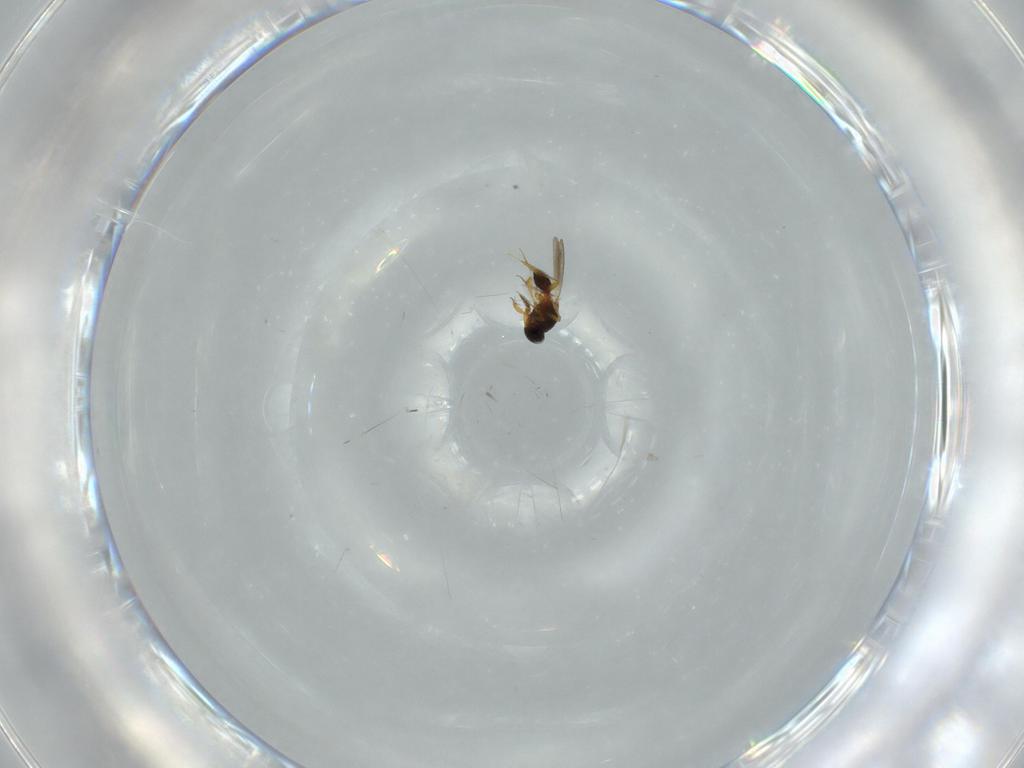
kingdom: Animalia
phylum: Arthropoda
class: Insecta
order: Hymenoptera
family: Platygastridae
